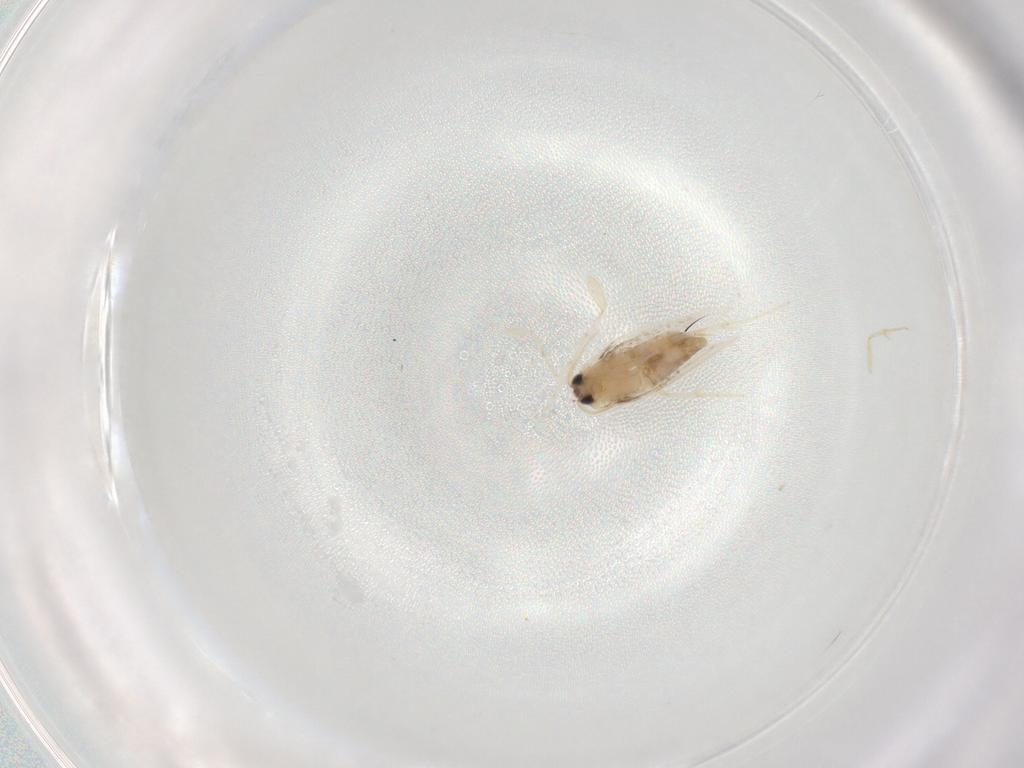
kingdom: Animalia
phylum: Arthropoda
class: Insecta
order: Lepidoptera
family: Nepticulidae
